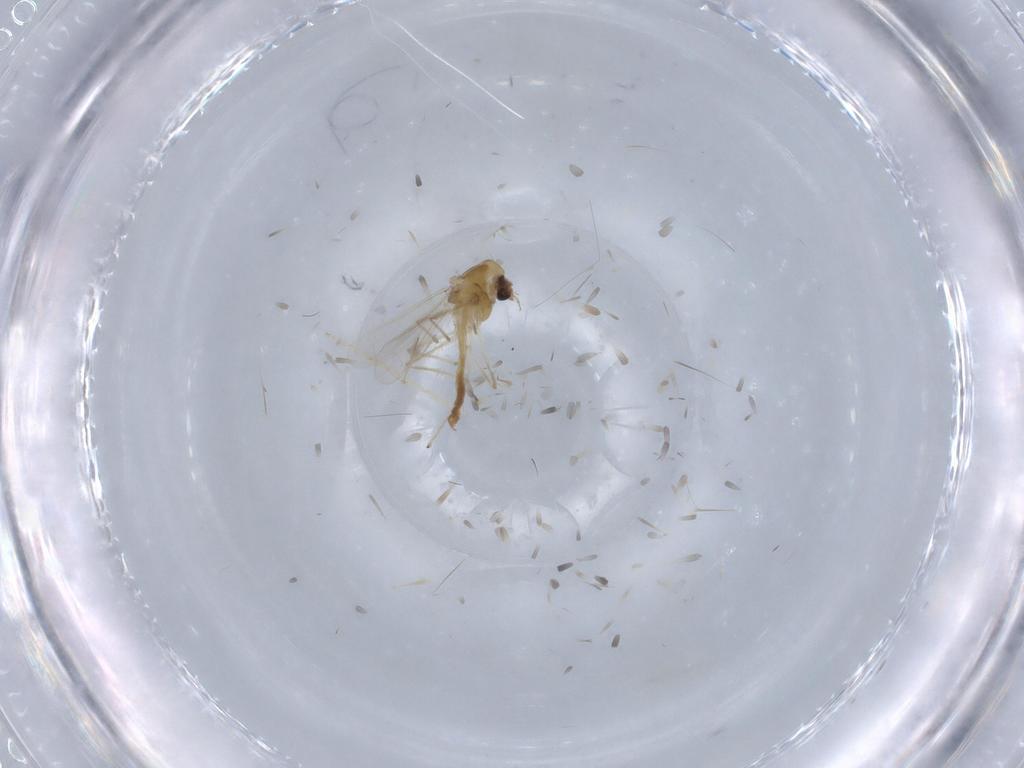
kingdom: Animalia
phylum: Arthropoda
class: Insecta
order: Diptera
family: Chironomidae
